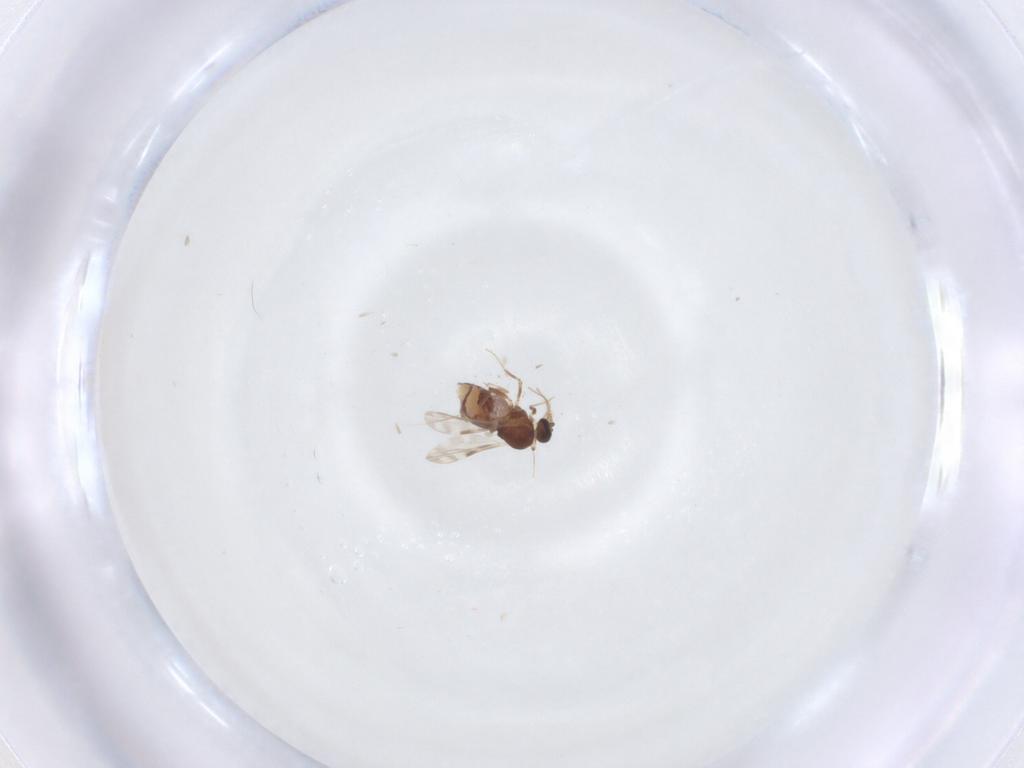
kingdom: Animalia
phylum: Arthropoda
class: Insecta
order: Diptera
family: Ceratopogonidae
